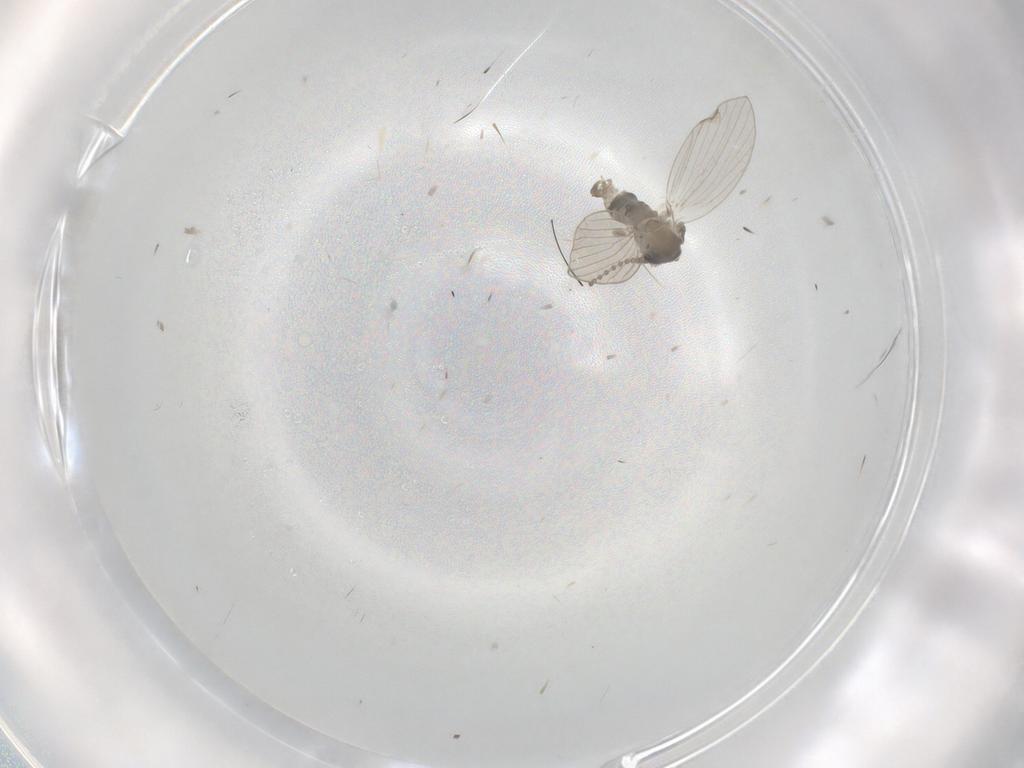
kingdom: Animalia
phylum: Arthropoda
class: Insecta
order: Diptera
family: Psychodidae
